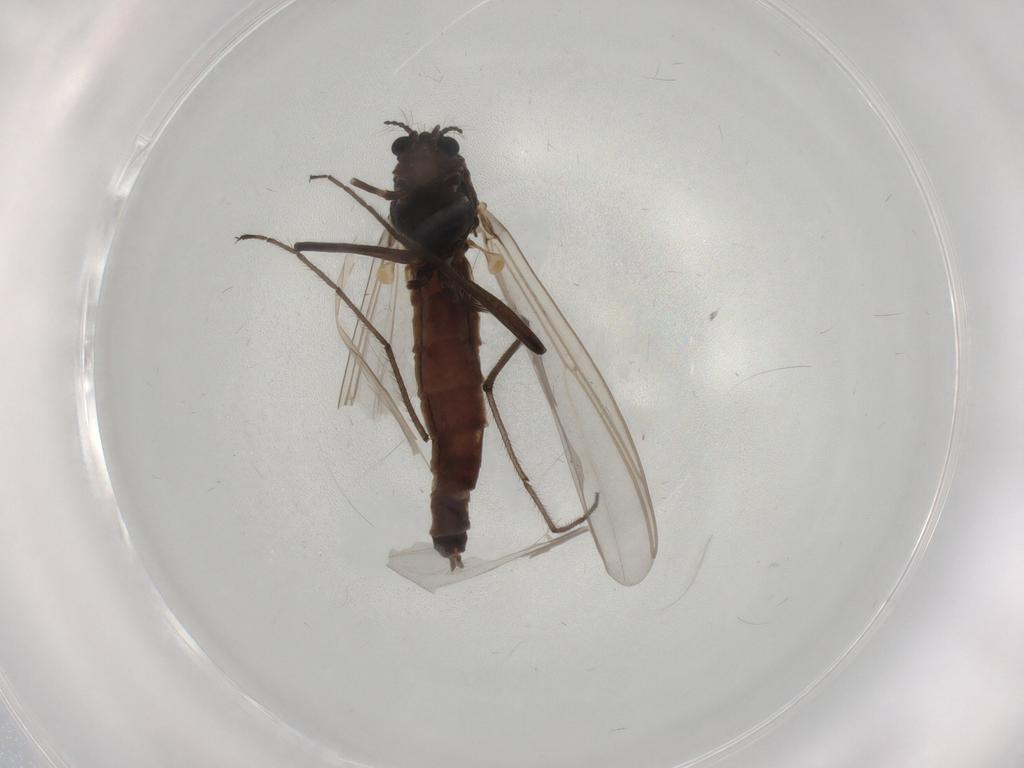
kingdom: Animalia
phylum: Arthropoda
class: Insecta
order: Diptera
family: Chironomidae
